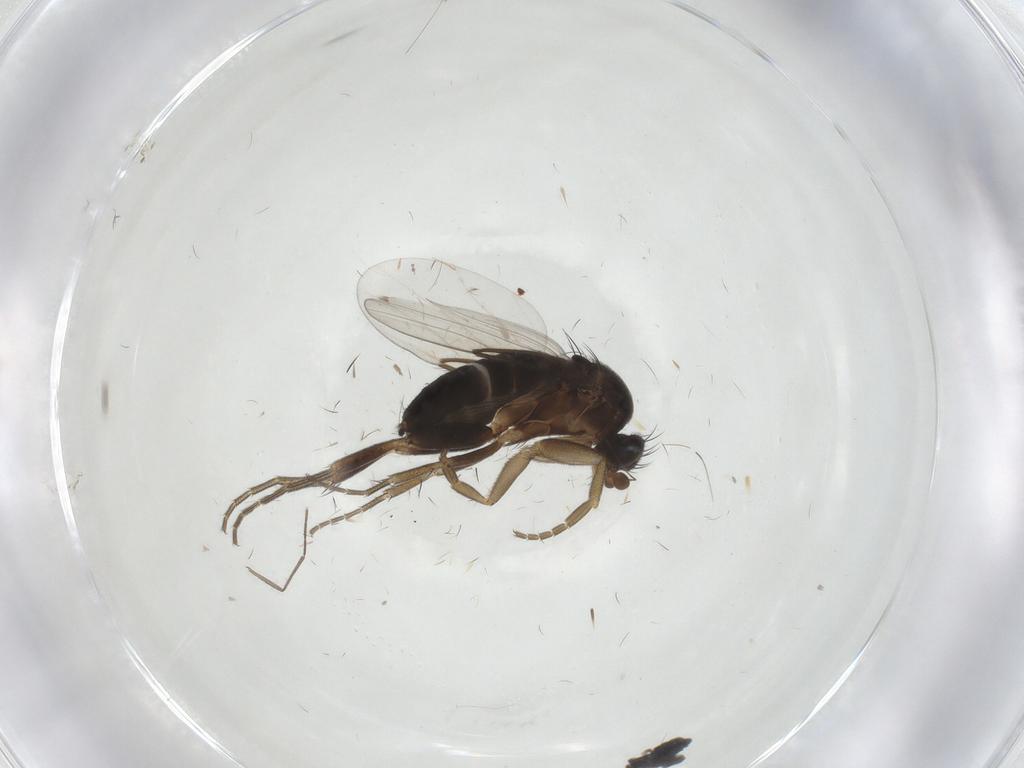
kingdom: Animalia
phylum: Arthropoda
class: Insecta
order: Diptera
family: Phoridae
